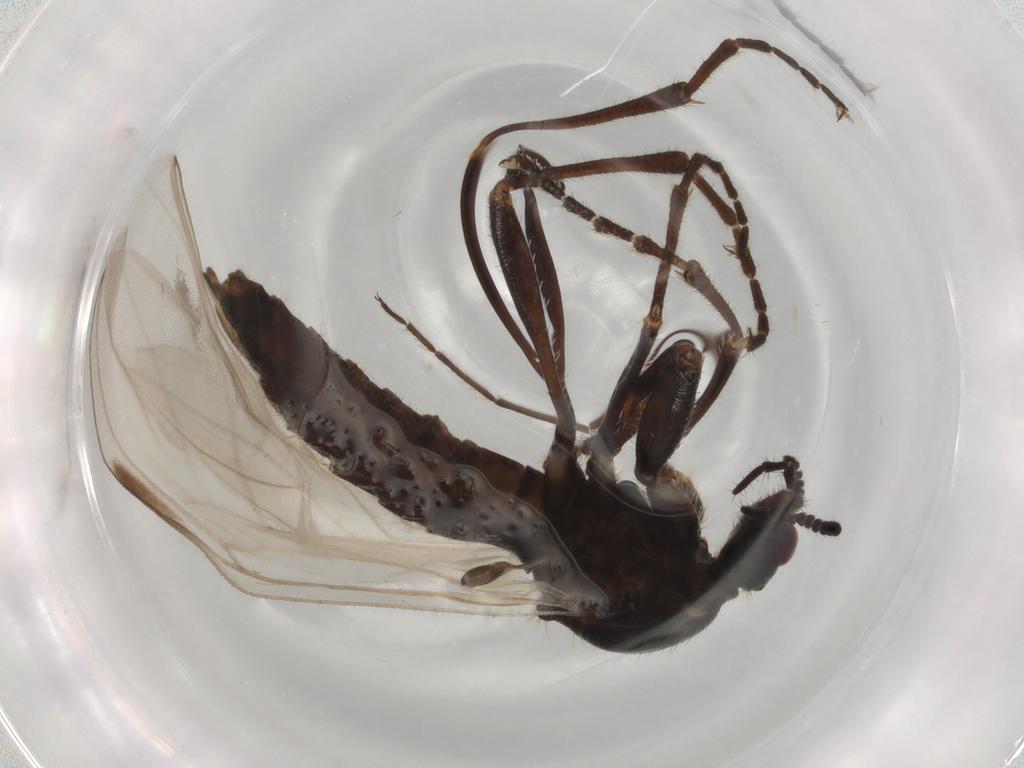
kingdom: Animalia
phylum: Arthropoda
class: Insecta
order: Diptera
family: Bibionidae
